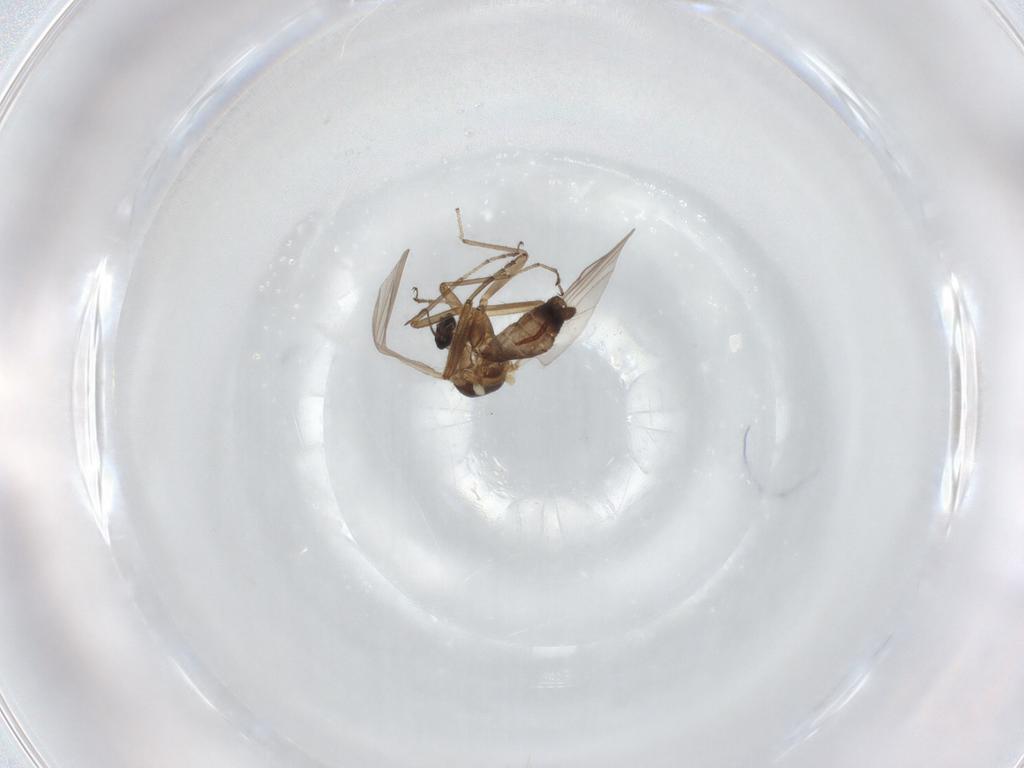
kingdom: Animalia
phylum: Arthropoda
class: Insecta
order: Diptera
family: Ceratopogonidae
